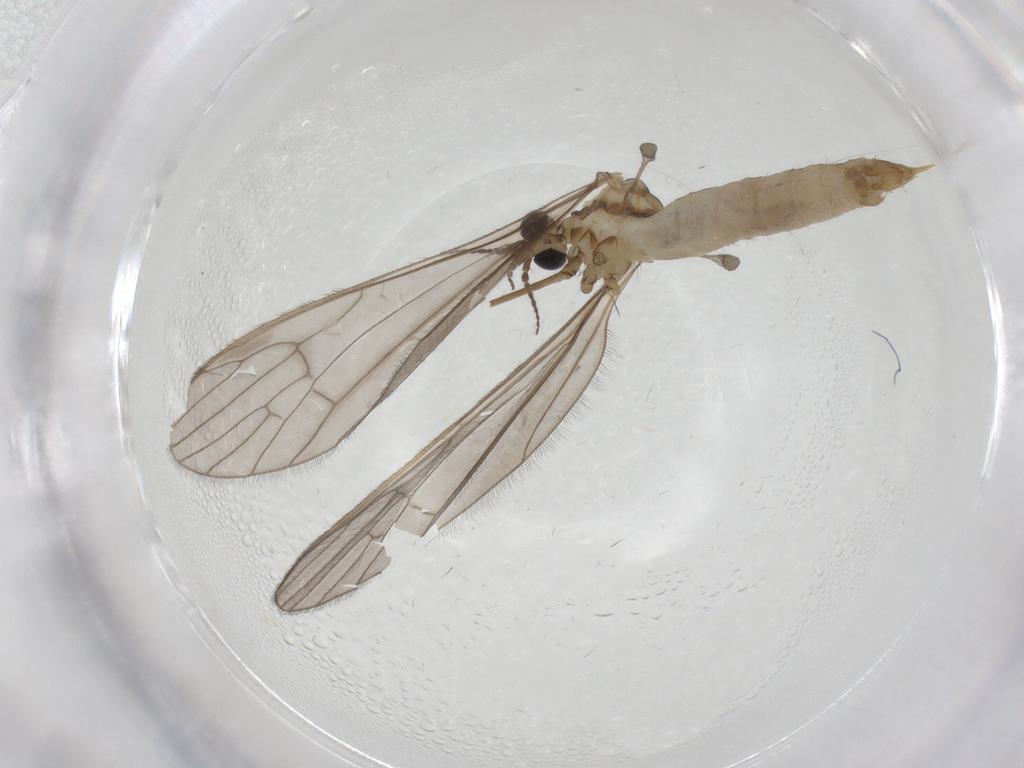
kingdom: Animalia
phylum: Arthropoda
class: Insecta
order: Diptera
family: Limoniidae
